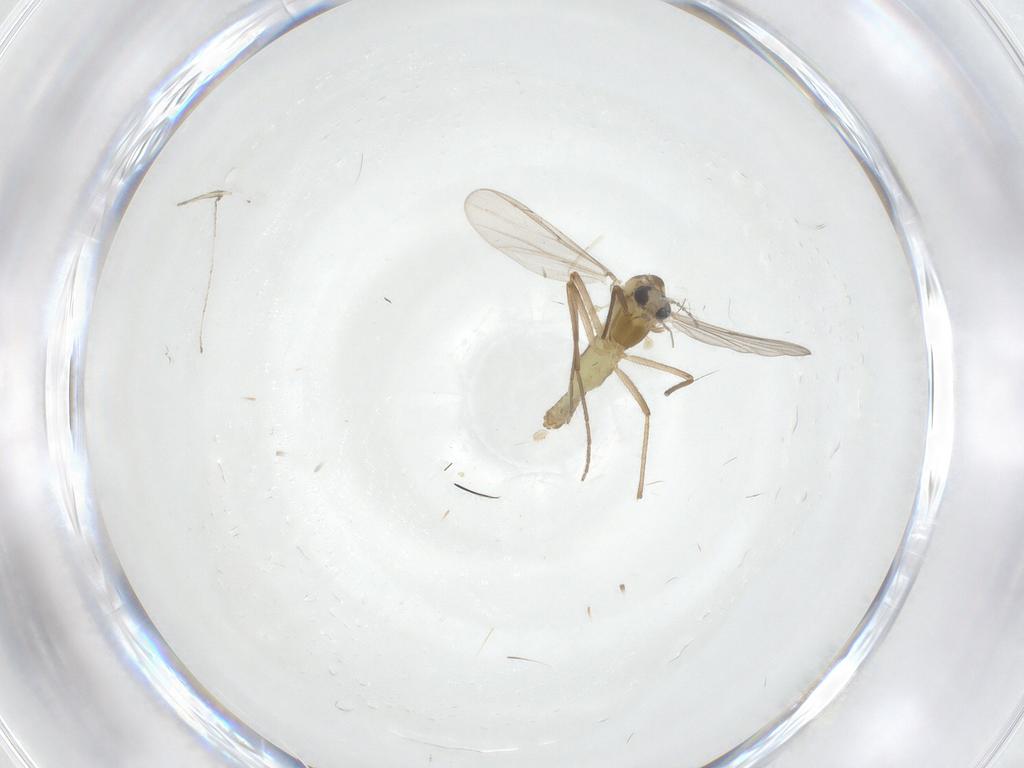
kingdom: Animalia
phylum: Arthropoda
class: Insecta
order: Diptera
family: Chironomidae
